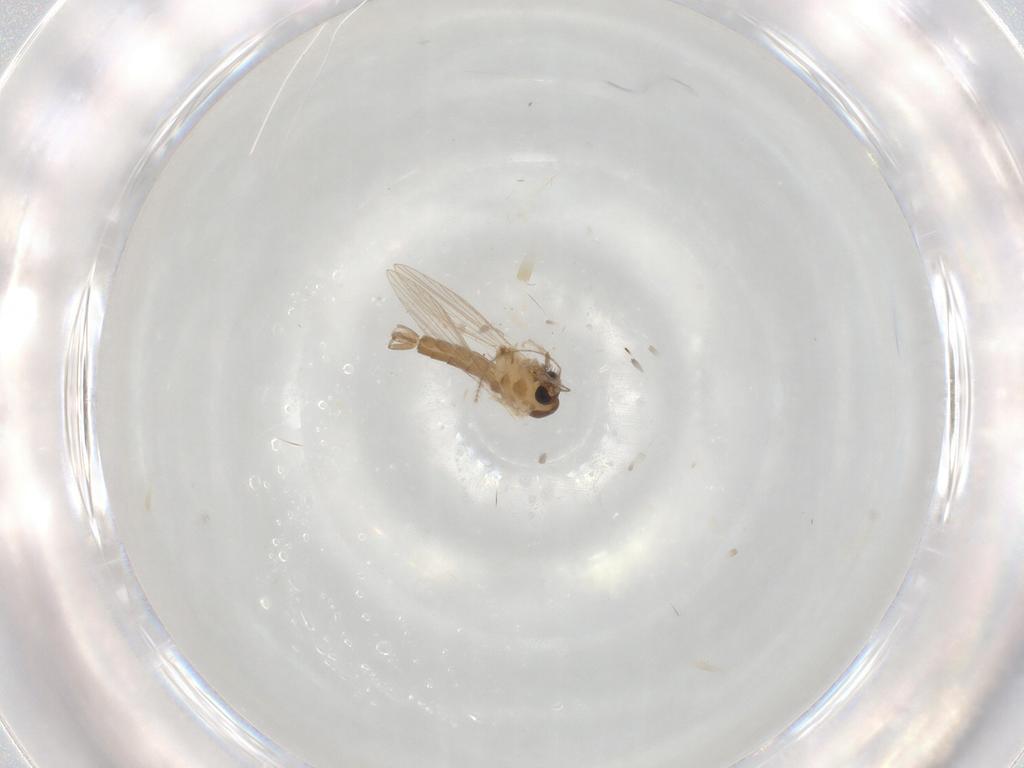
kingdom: Animalia
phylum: Arthropoda
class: Insecta
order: Diptera
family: Psychodidae
